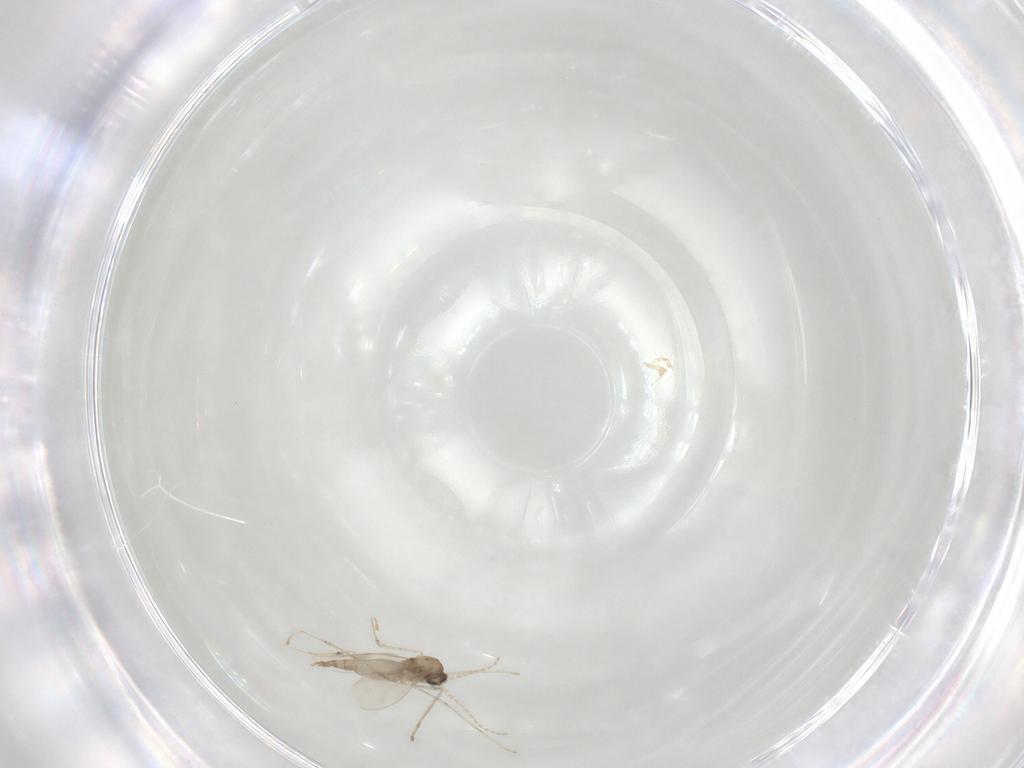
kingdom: Animalia
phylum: Arthropoda
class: Insecta
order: Diptera
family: Cecidomyiidae
